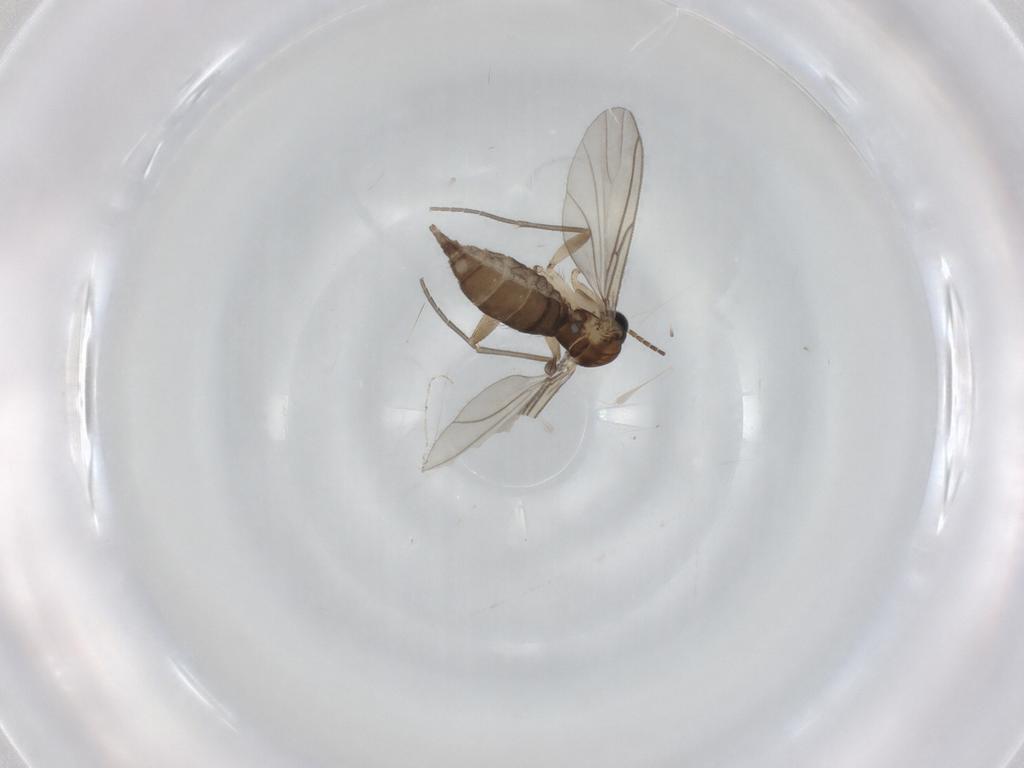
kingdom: Animalia
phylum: Arthropoda
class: Insecta
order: Diptera
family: Sciaridae
